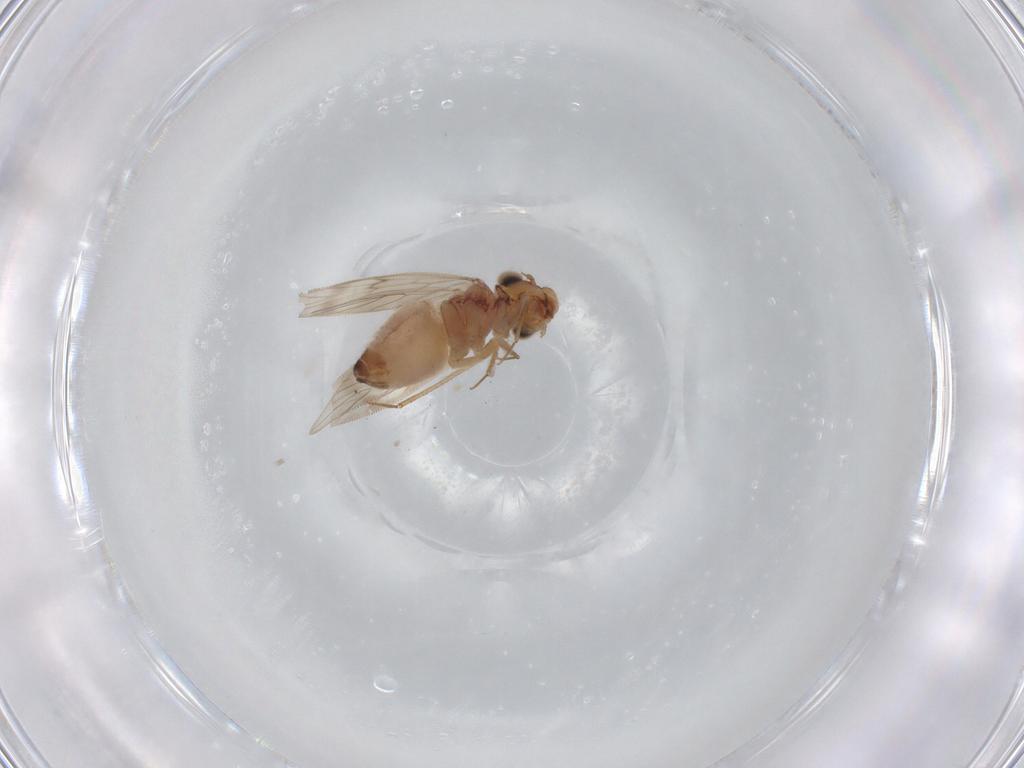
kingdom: Animalia
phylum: Arthropoda
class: Insecta
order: Psocodea
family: Lepidopsocidae
